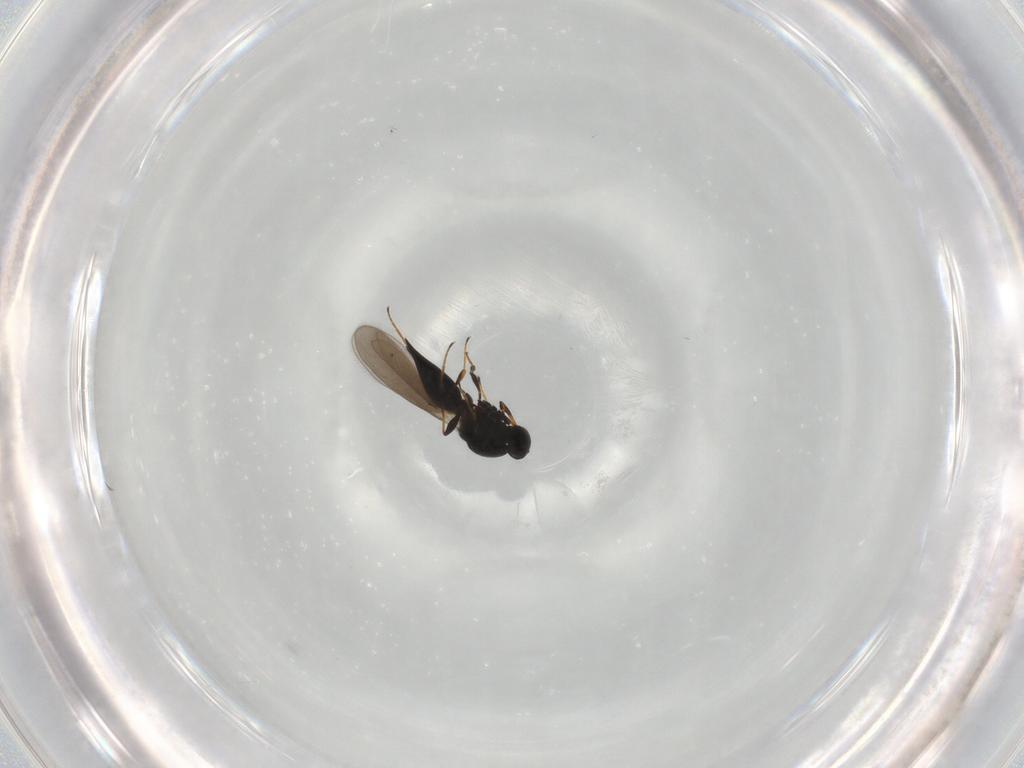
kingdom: Animalia
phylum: Arthropoda
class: Insecta
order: Hymenoptera
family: Platygastridae
